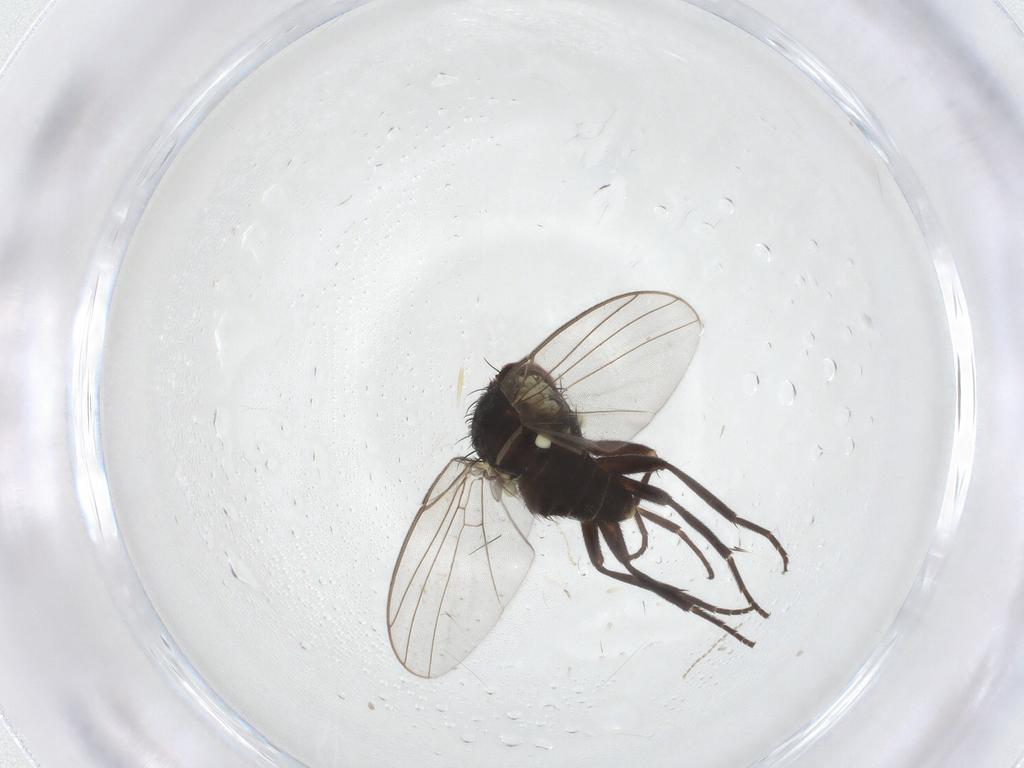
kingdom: Animalia
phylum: Arthropoda
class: Insecta
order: Diptera
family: Agromyzidae
